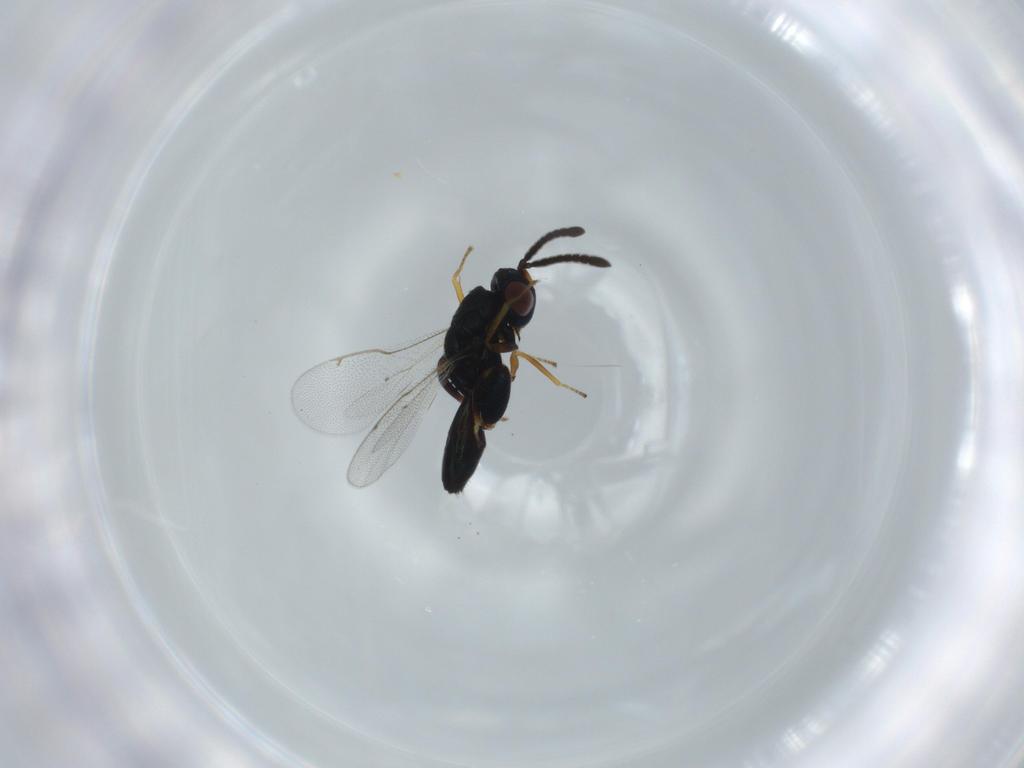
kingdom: Animalia
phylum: Arthropoda
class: Insecta
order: Hymenoptera
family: Torymidae
